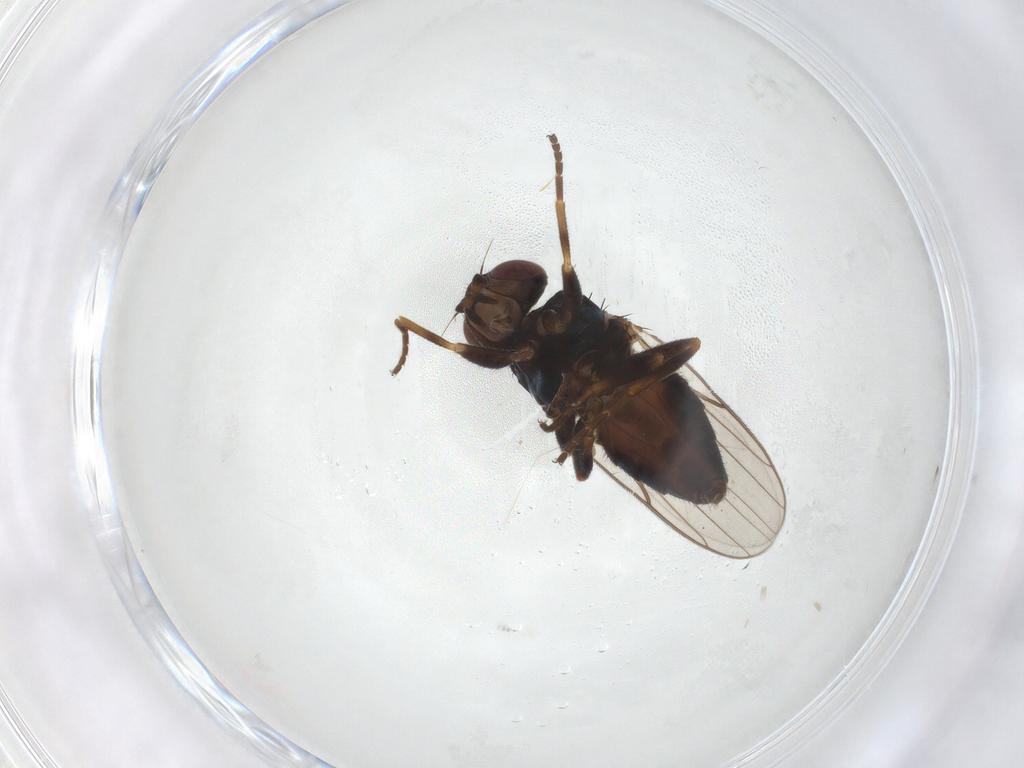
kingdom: Animalia
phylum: Arthropoda
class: Insecta
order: Diptera
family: Chloropidae
